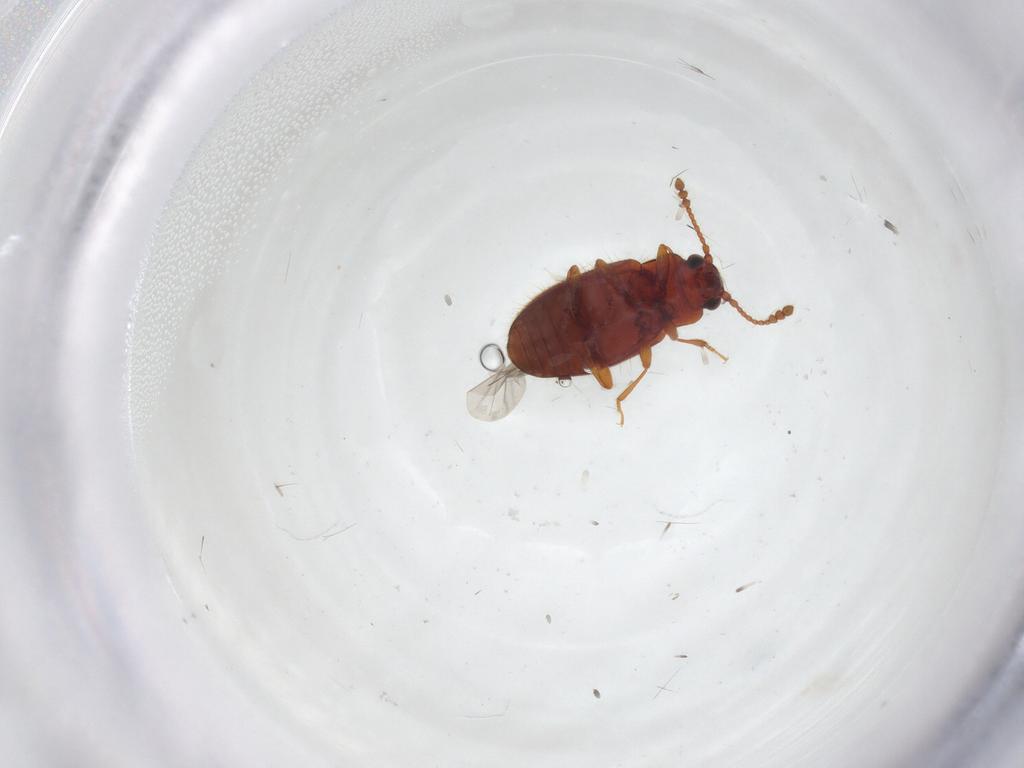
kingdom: Animalia
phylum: Arthropoda
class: Insecta
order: Coleoptera
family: Cryptophagidae
